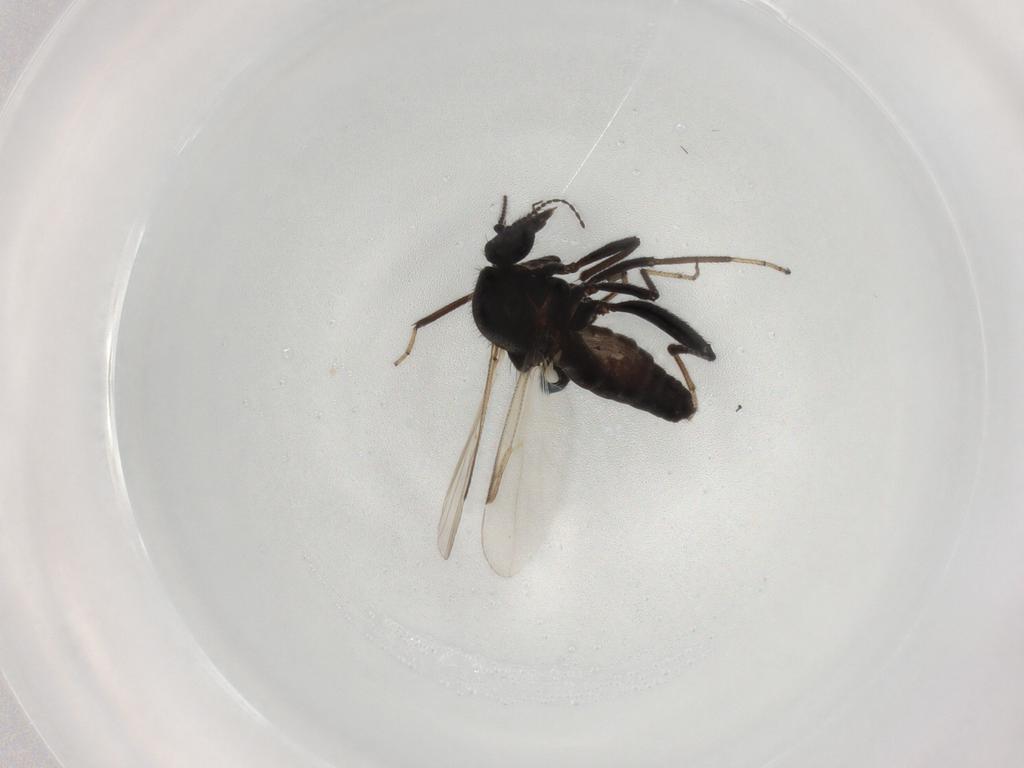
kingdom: Animalia
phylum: Arthropoda
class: Insecta
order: Diptera
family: Ceratopogonidae
